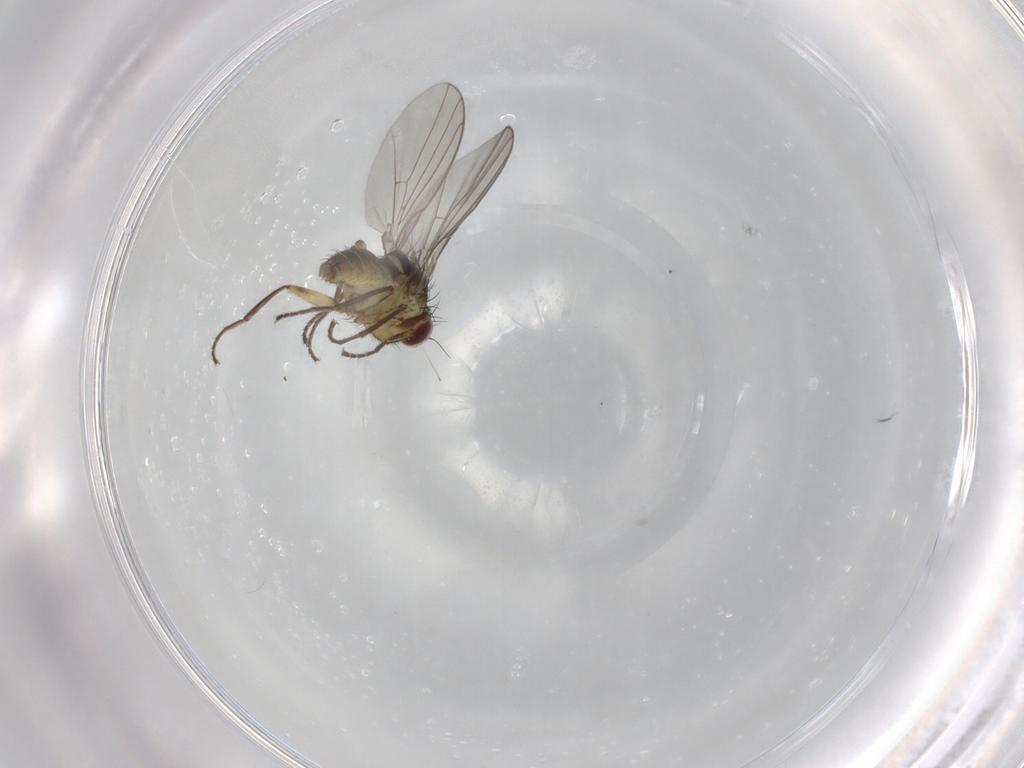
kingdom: Animalia
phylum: Arthropoda
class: Insecta
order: Diptera
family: Agromyzidae
